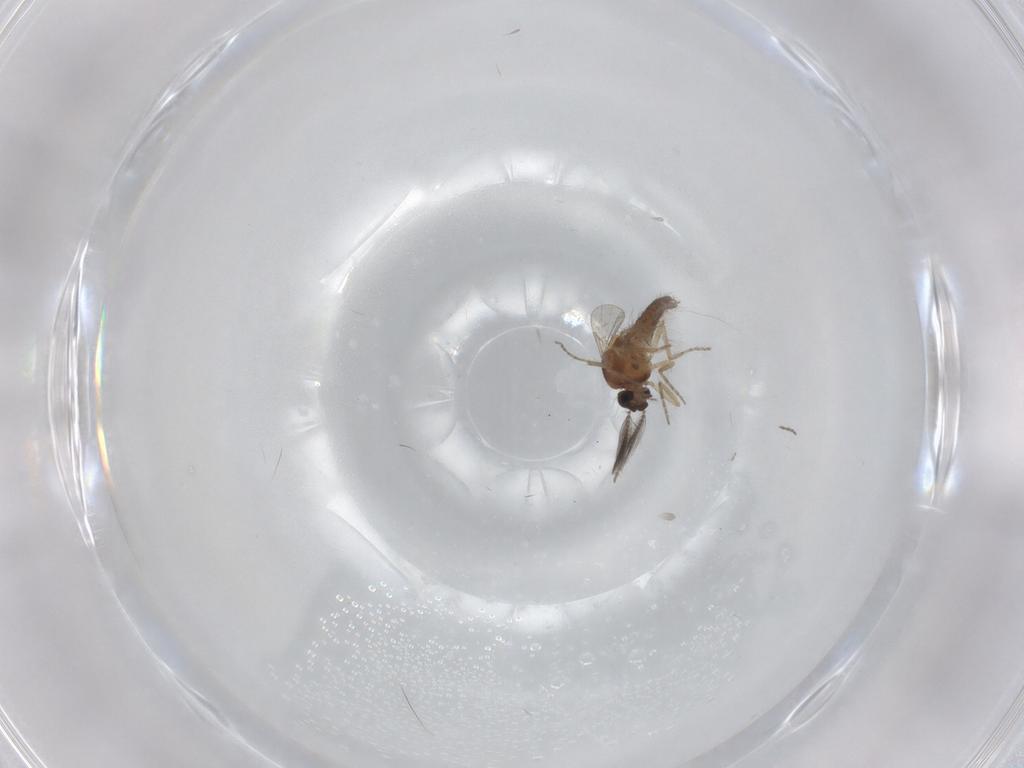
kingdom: Animalia
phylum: Arthropoda
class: Insecta
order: Diptera
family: Ceratopogonidae
